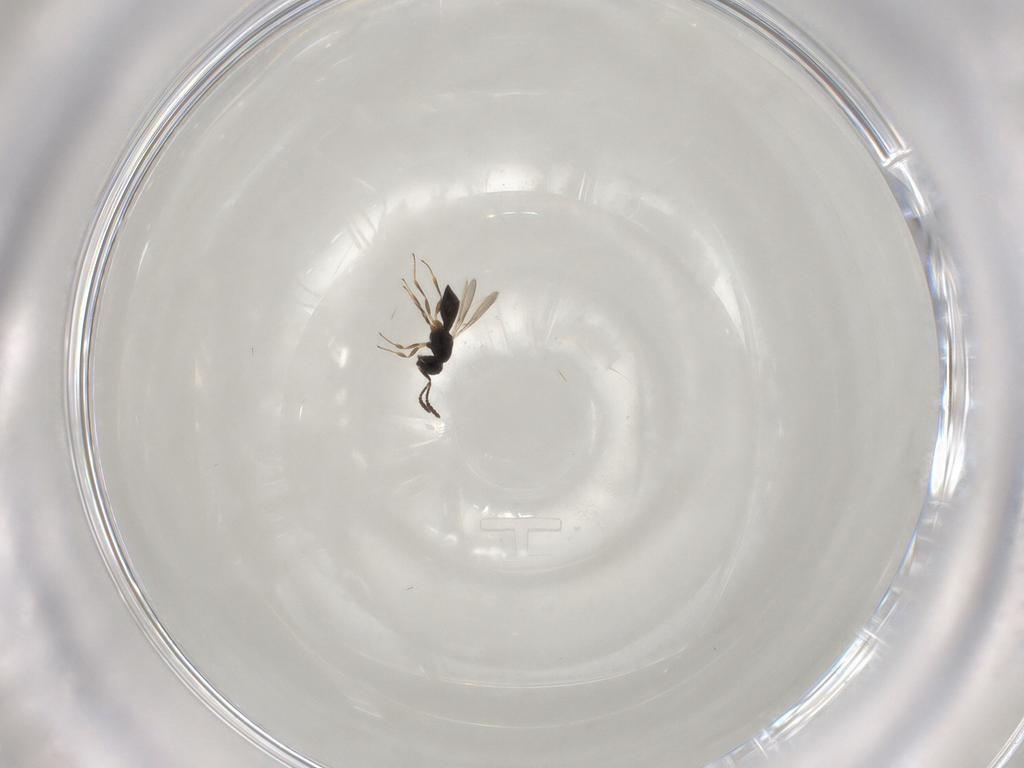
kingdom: Animalia
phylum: Arthropoda
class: Insecta
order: Hymenoptera
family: Scelionidae
